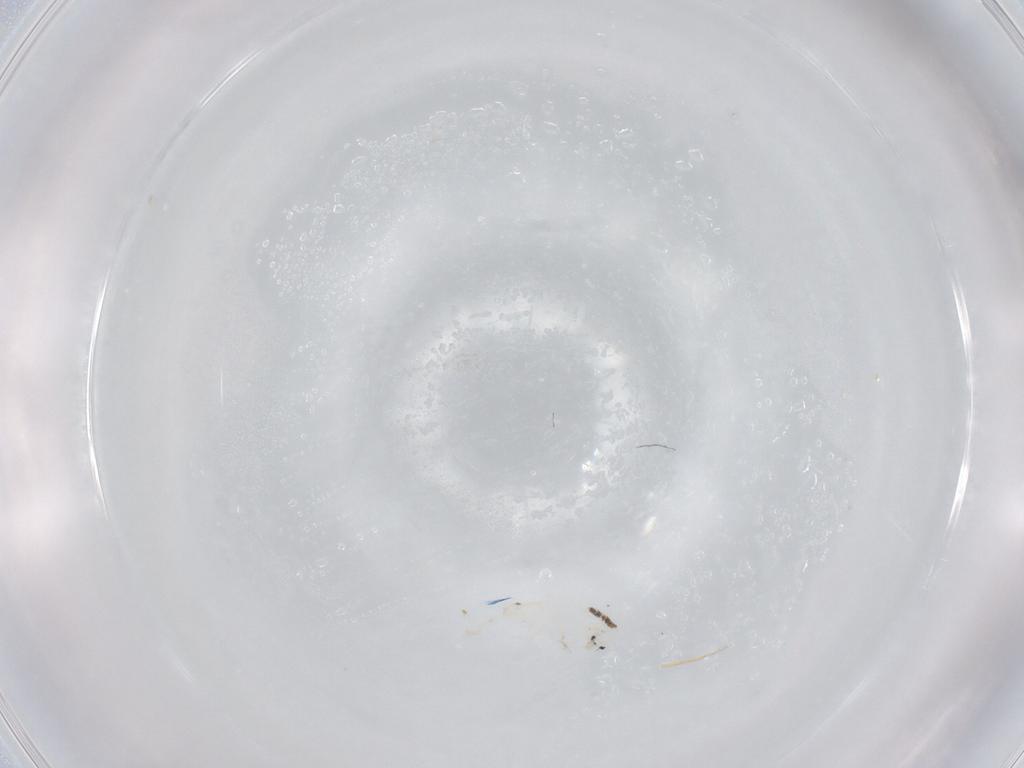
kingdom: Animalia
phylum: Arthropoda
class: Collembola
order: Entomobryomorpha
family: Entomobryidae
